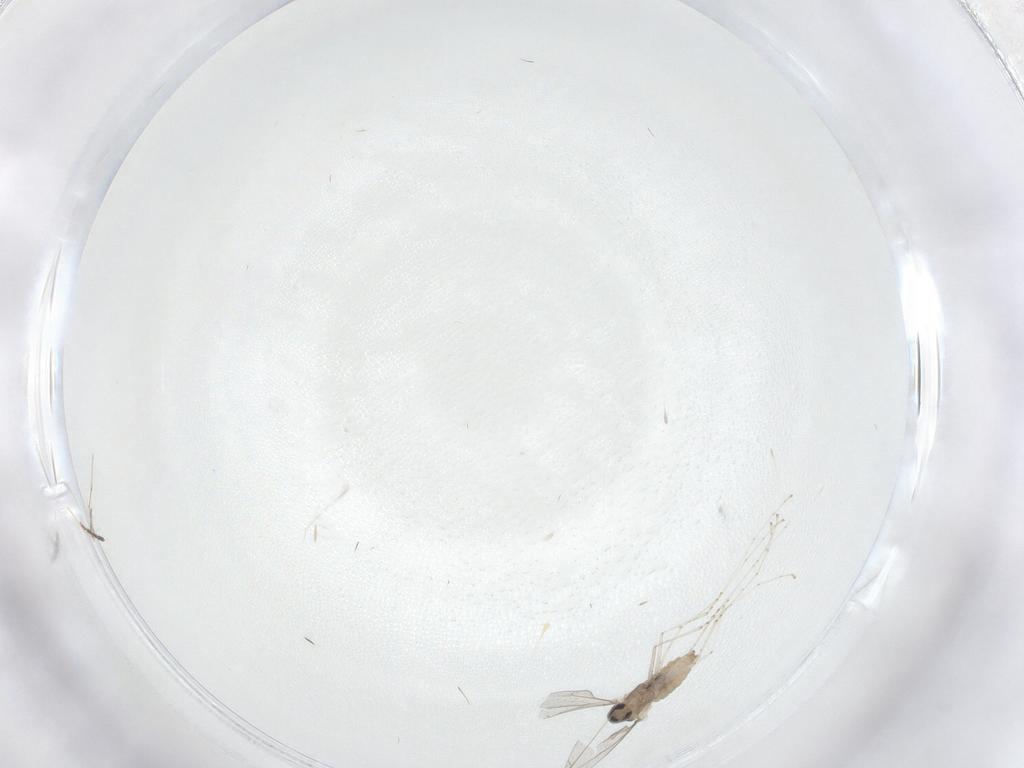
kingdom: Animalia
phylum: Arthropoda
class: Insecta
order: Diptera
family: Cecidomyiidae
